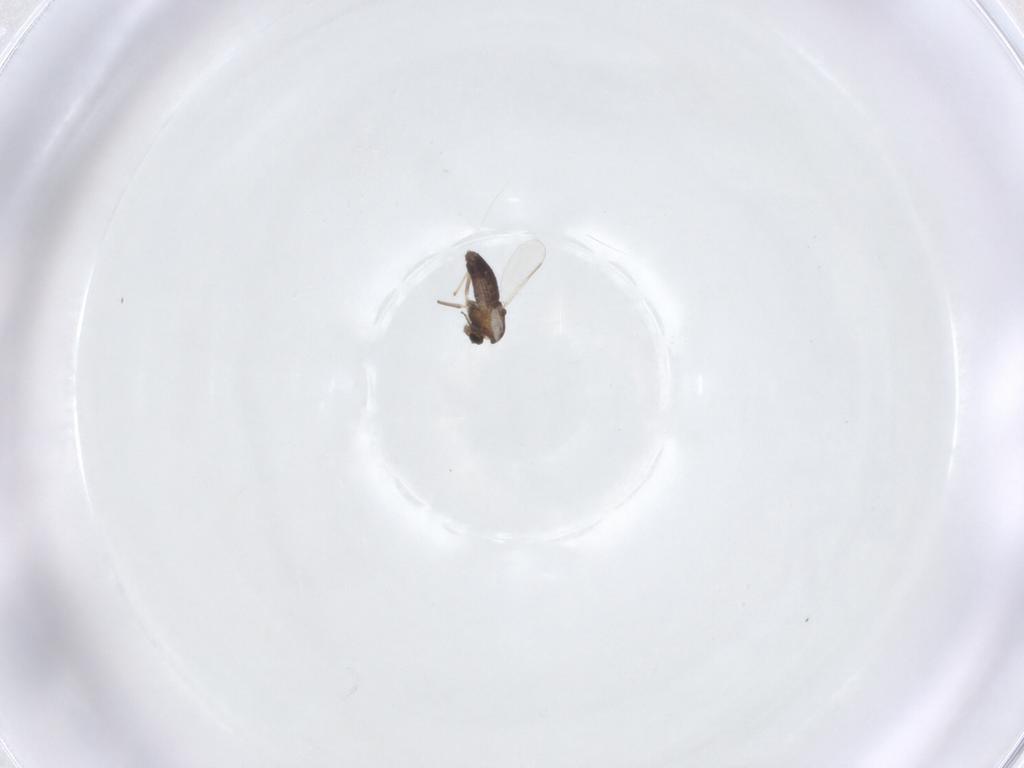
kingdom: Animalia
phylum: Arthropoda
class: Insecta
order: Diptera
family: Chironomidae
